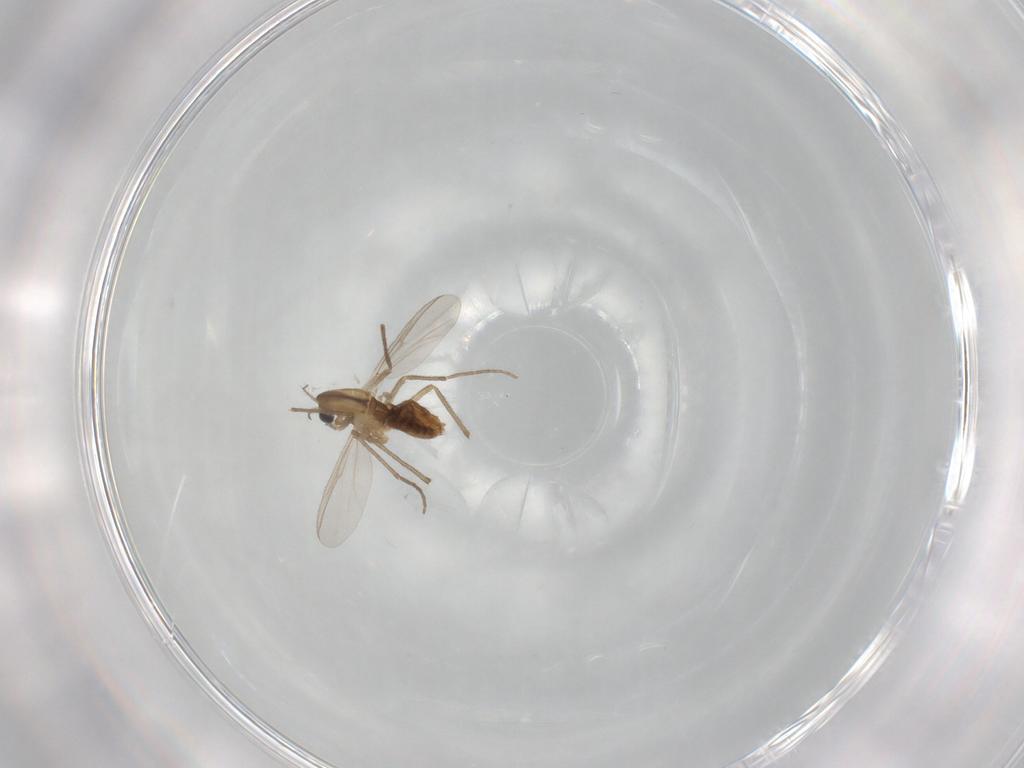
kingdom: Animalia
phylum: Arthropoda
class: Insecta
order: Diptera
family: Chironomidae
